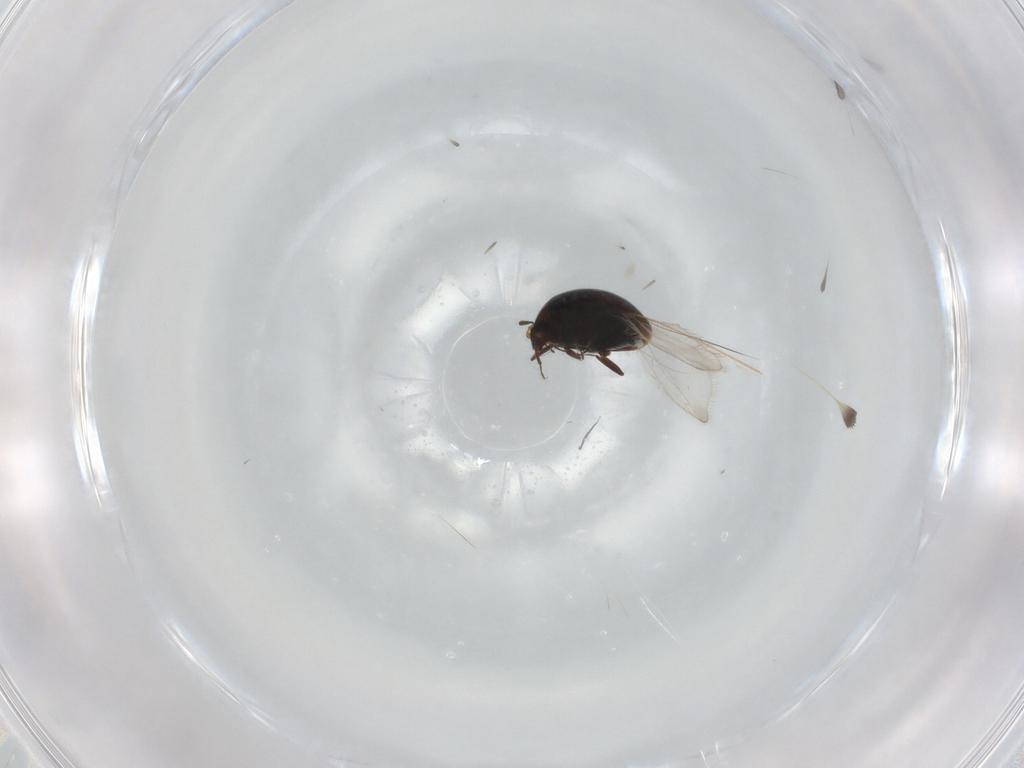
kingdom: Animalia
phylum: Arthropoda
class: Insecta
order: Coleoptera
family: Corylophidae
